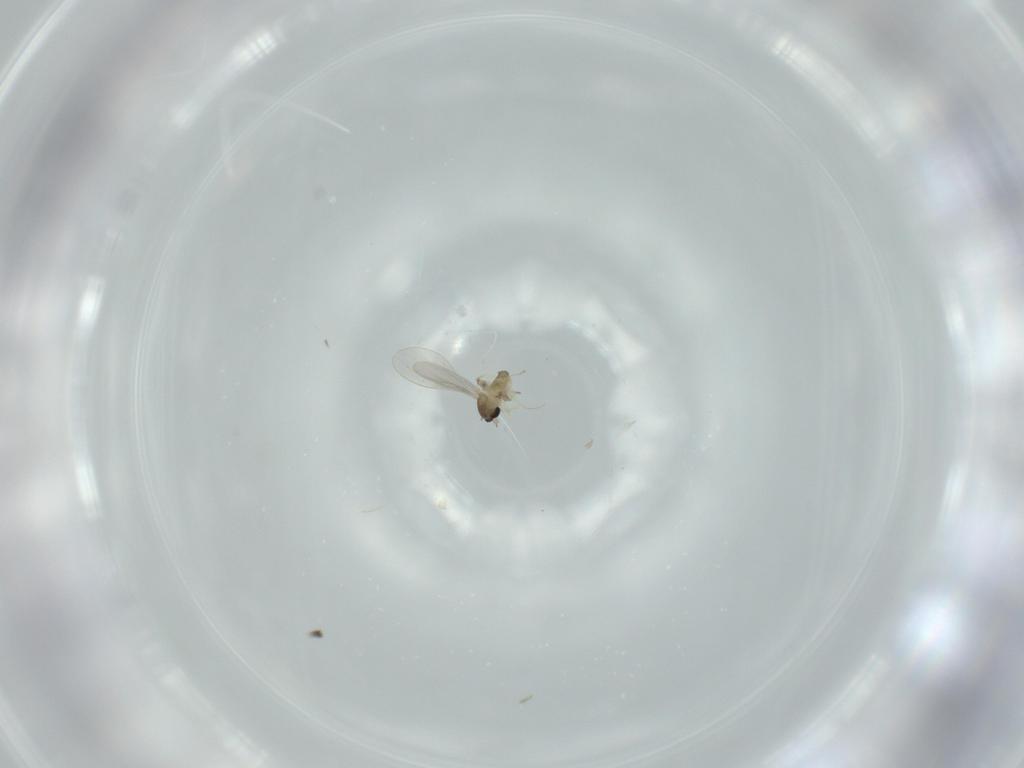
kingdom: Animalia
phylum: Arthropoda
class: Insecta
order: Diptera
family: Cecidomyiidae
